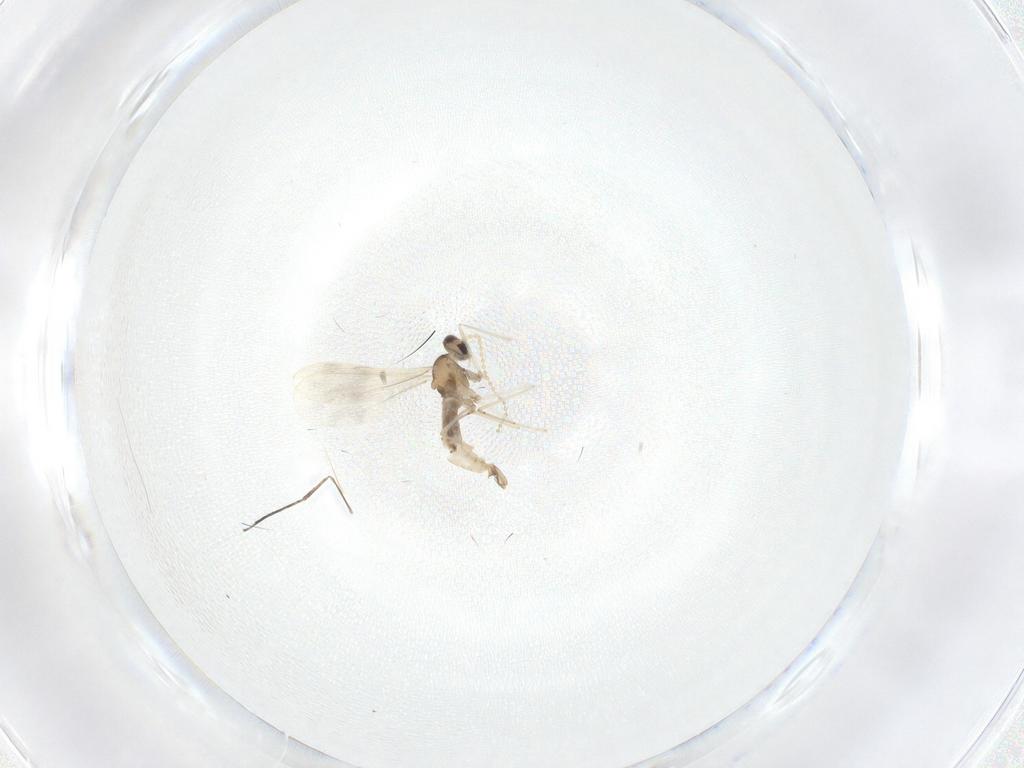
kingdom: Animalia
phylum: Arthropoda
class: Insecta
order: Diptera
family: Cecidomyiidae
